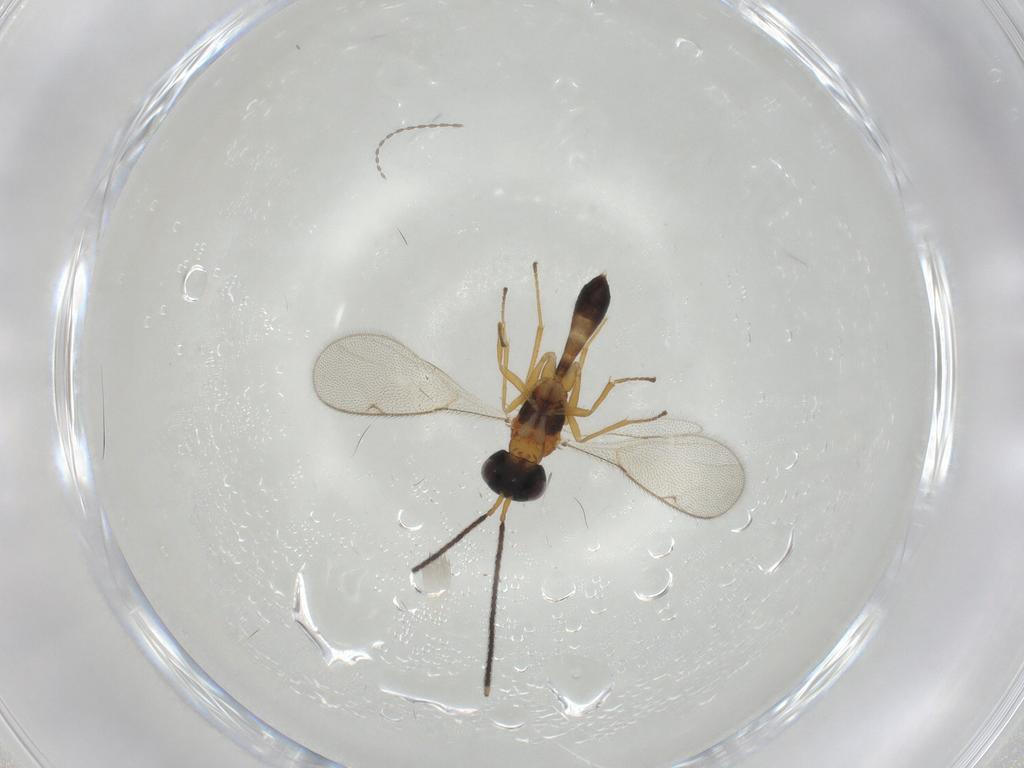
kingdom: Animalia
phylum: Arthropoda
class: Insecta
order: Hymenoptera
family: Pteromalidae
